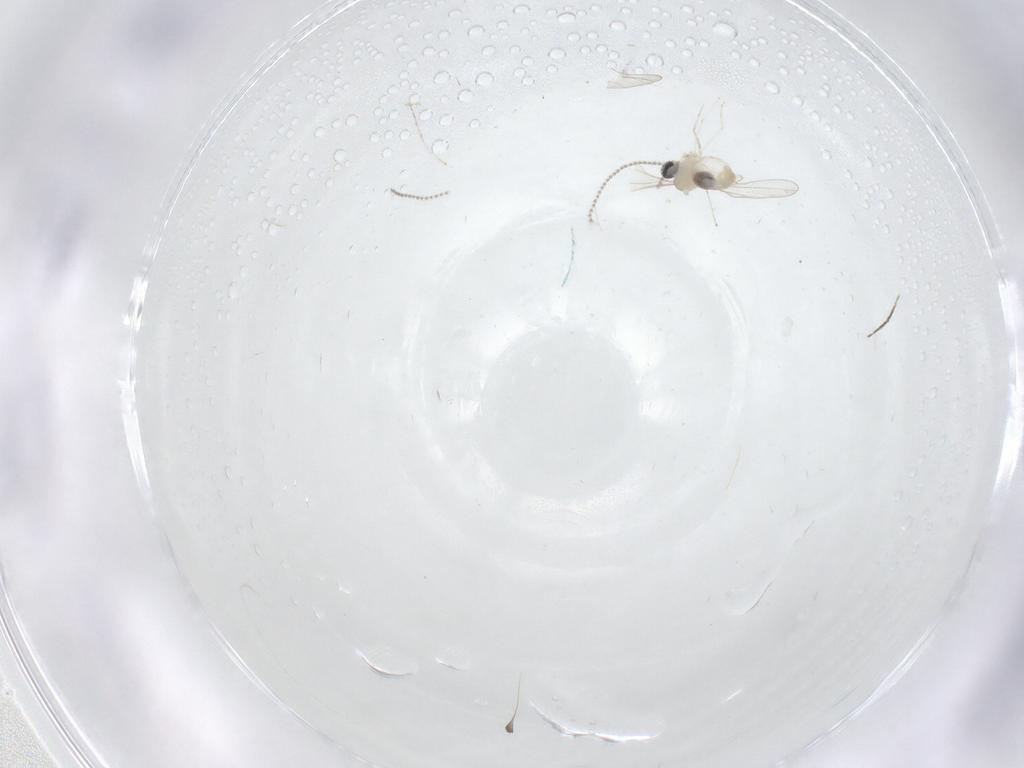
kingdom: Animalia
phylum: Arthropoda
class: Insecta
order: Diptera
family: Cecidomyiidae
